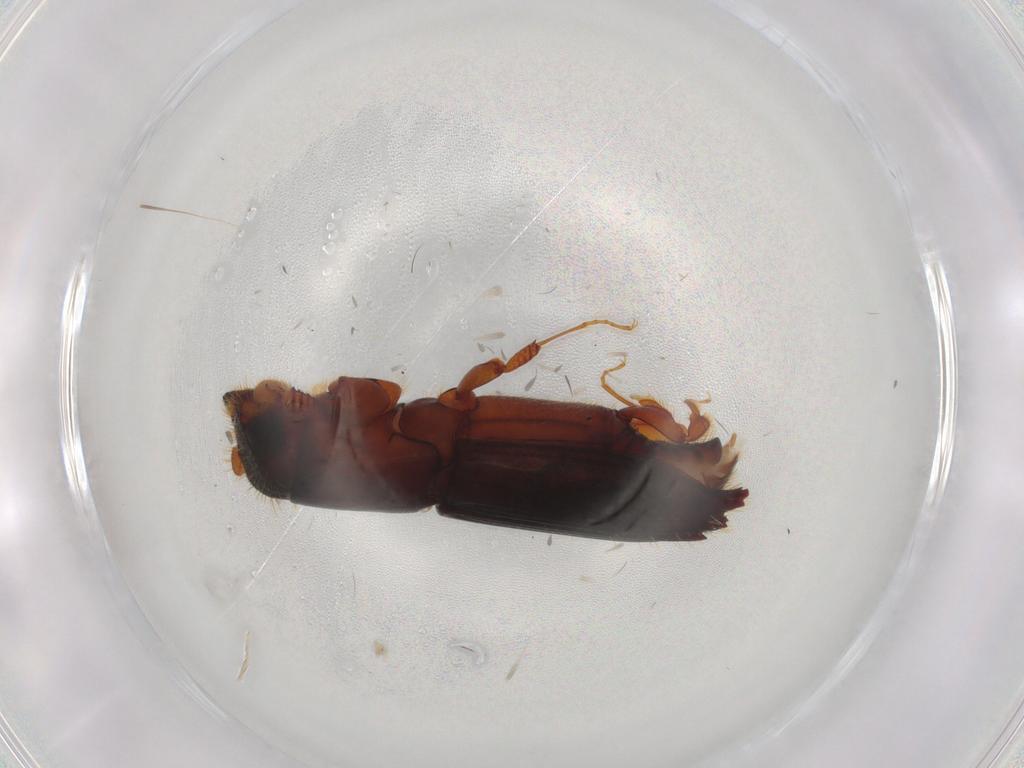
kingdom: Animalia
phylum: Arthropoda
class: Insecta
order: Coleoptera
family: Curculionidae
